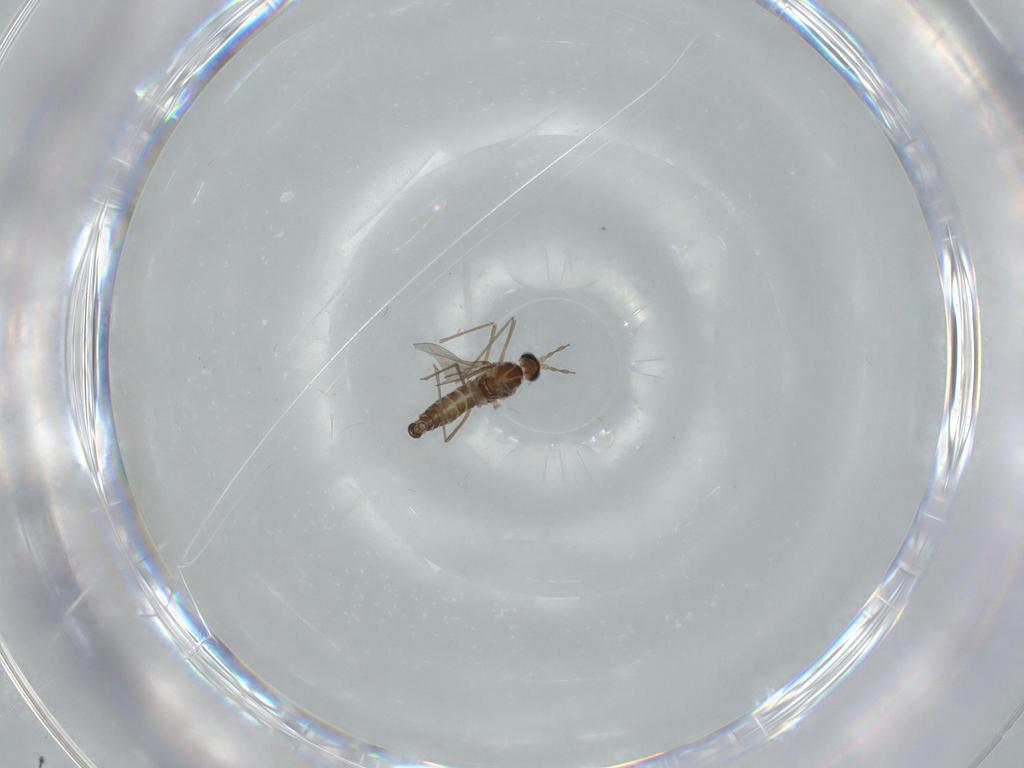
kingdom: Animalia
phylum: Arthropoda
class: Insecta
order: Diptera
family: Cecidomyiidae
